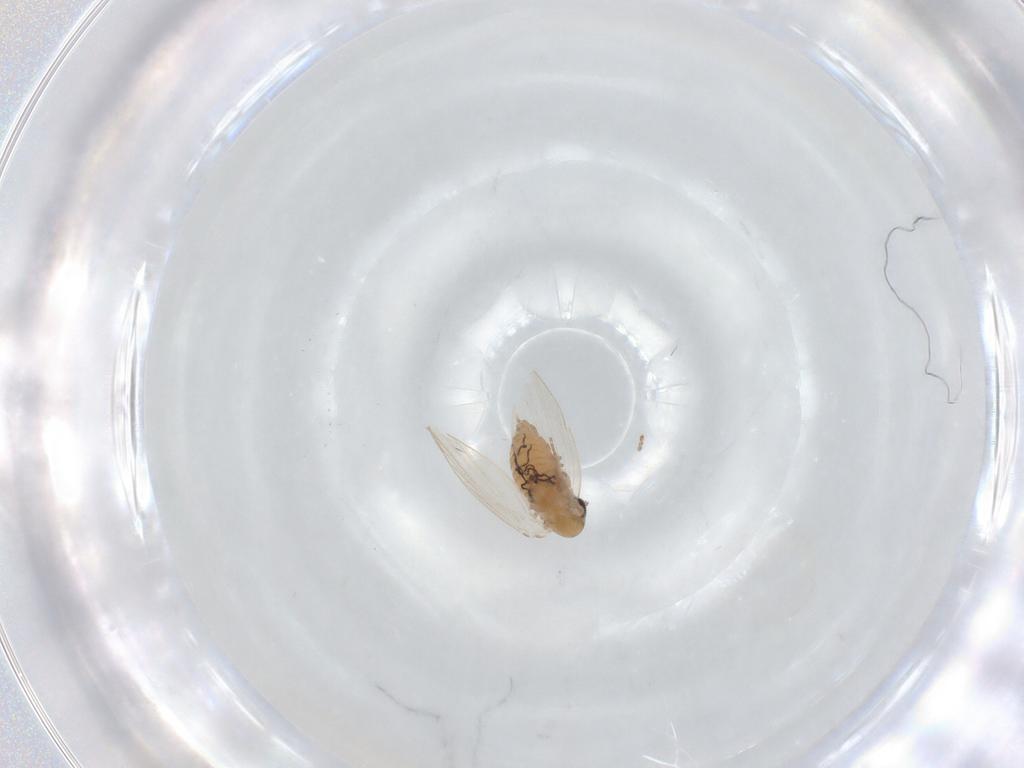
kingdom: Animalia
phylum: Arthropoda
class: Insecta
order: Diptera
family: Psychodidae
